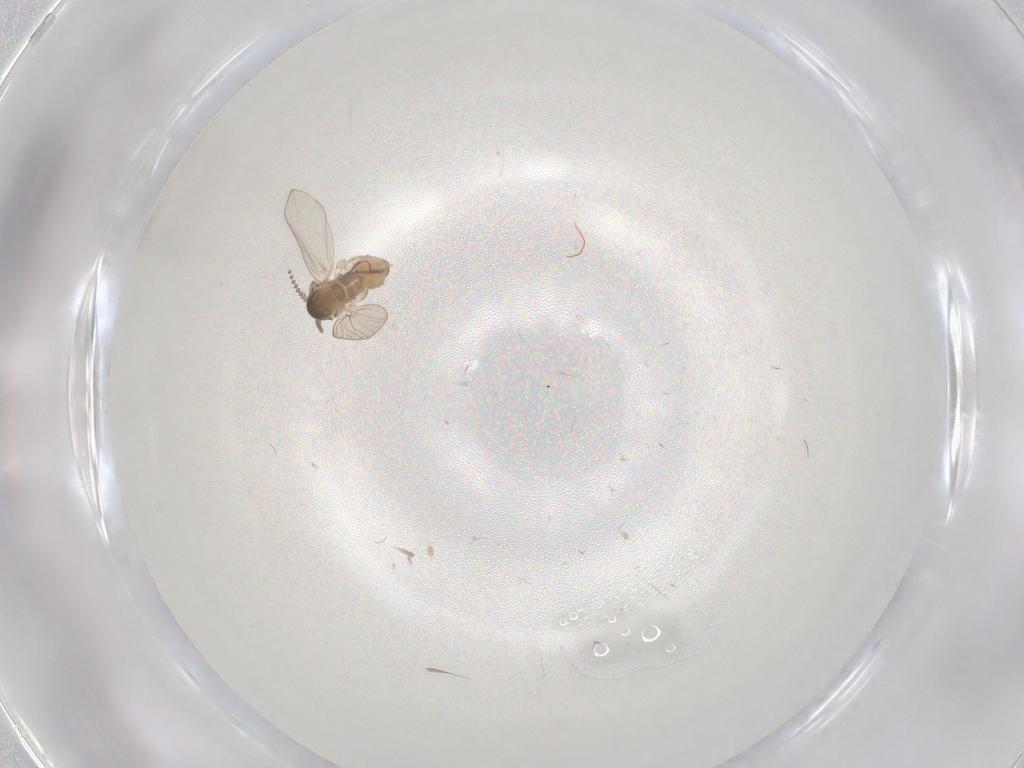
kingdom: Animalia
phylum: Arthropoda
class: Insecta
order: Diptera
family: Psychodidae
